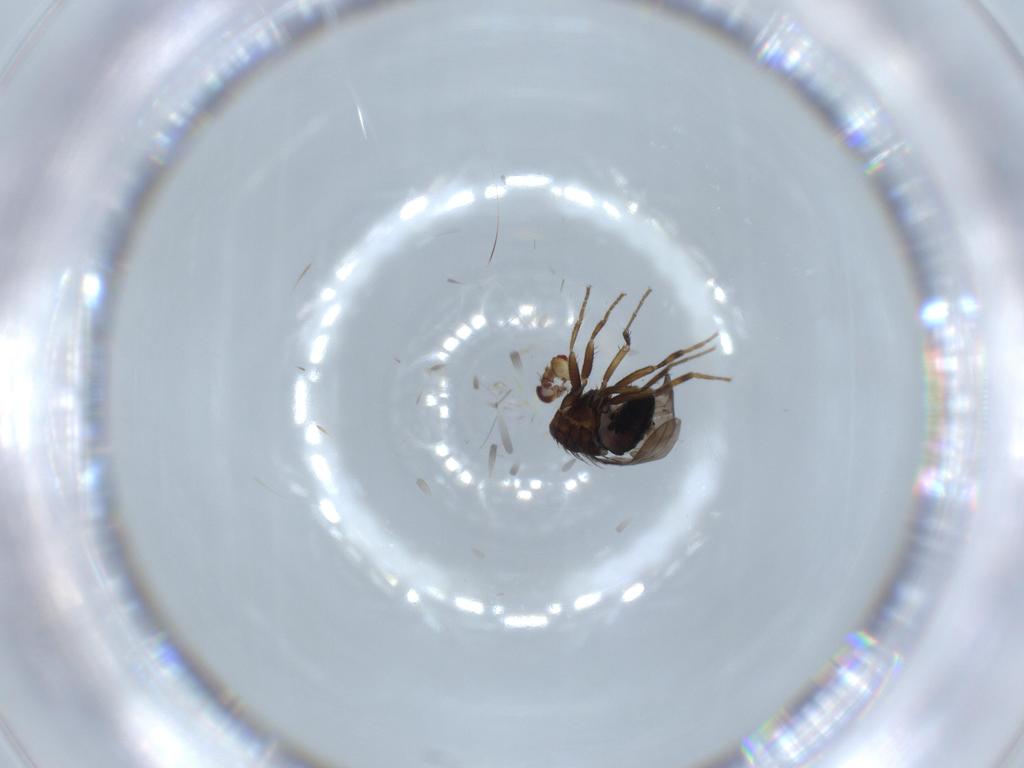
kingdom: Animalia
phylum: Arthropoda
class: Insecta
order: Diptera
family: Sphaeroceridae
